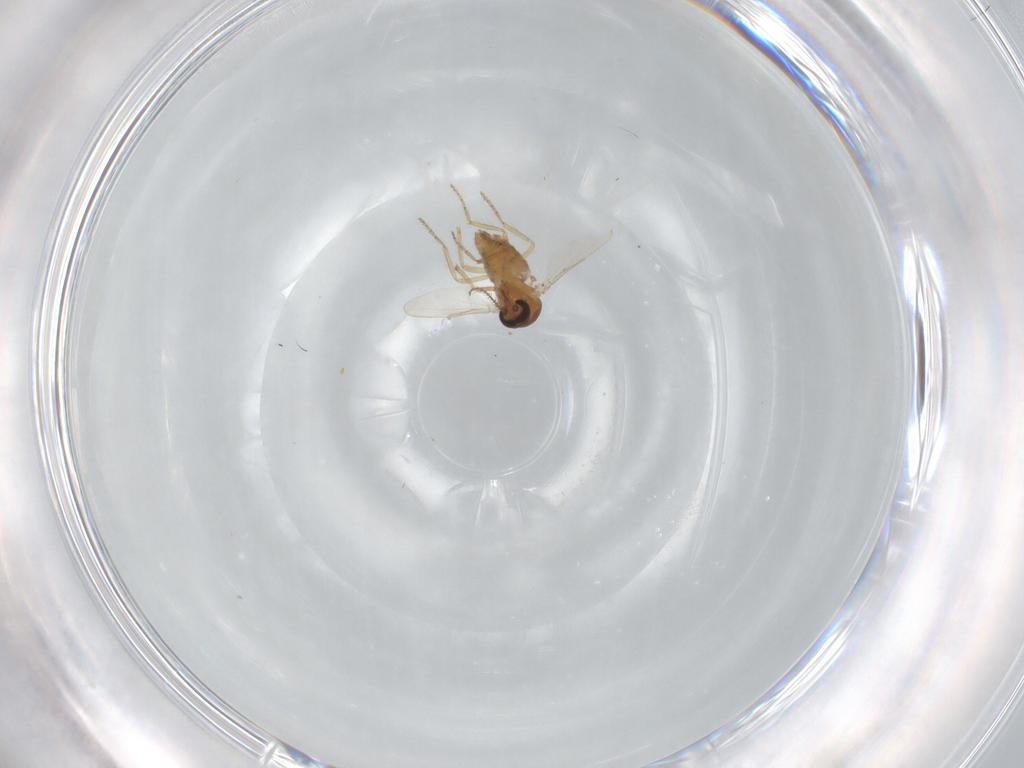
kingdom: Animalia
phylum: Arthropoda
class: Insecta
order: Diptera
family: Ceratopogonidae
